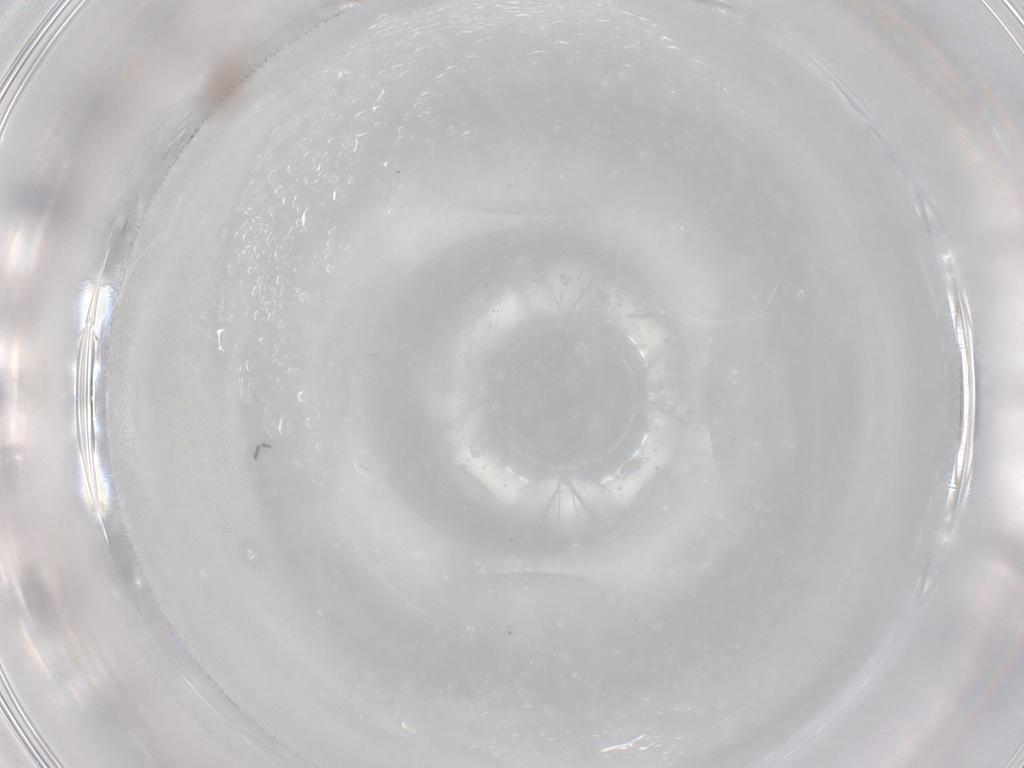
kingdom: Animalia
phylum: Arthropoda
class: Insecta
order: Diptera
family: Cecidomyiidae
